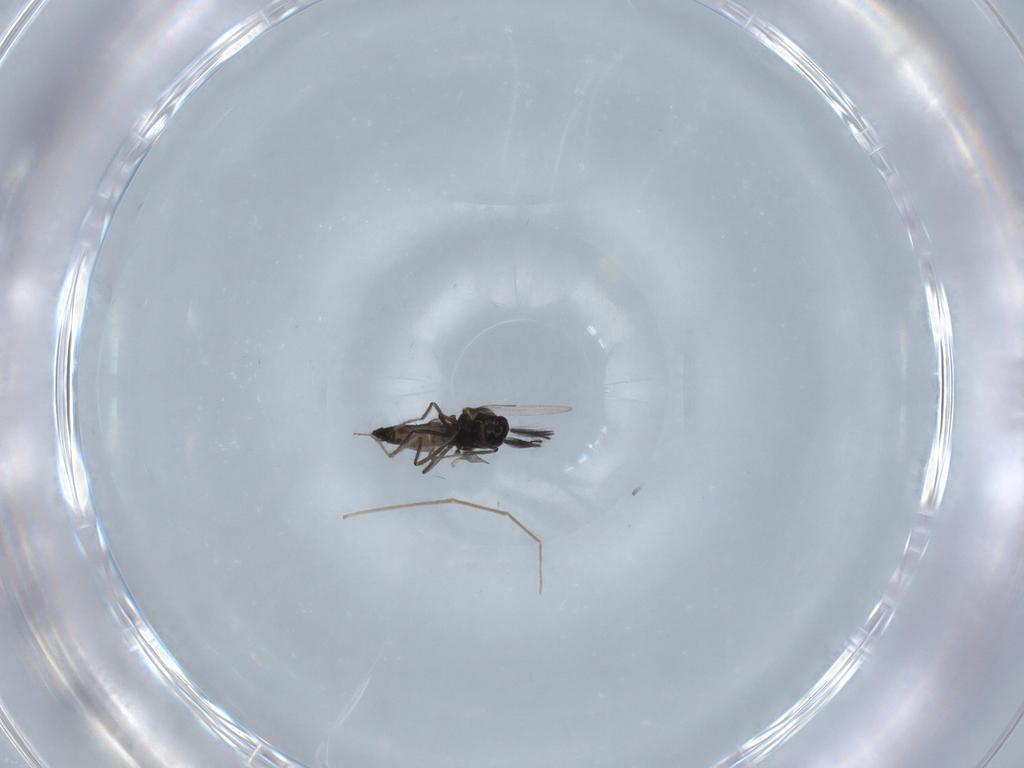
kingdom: Animalia
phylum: Arthropoda
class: Insecta
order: Diptera
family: Ceratopogonidae
